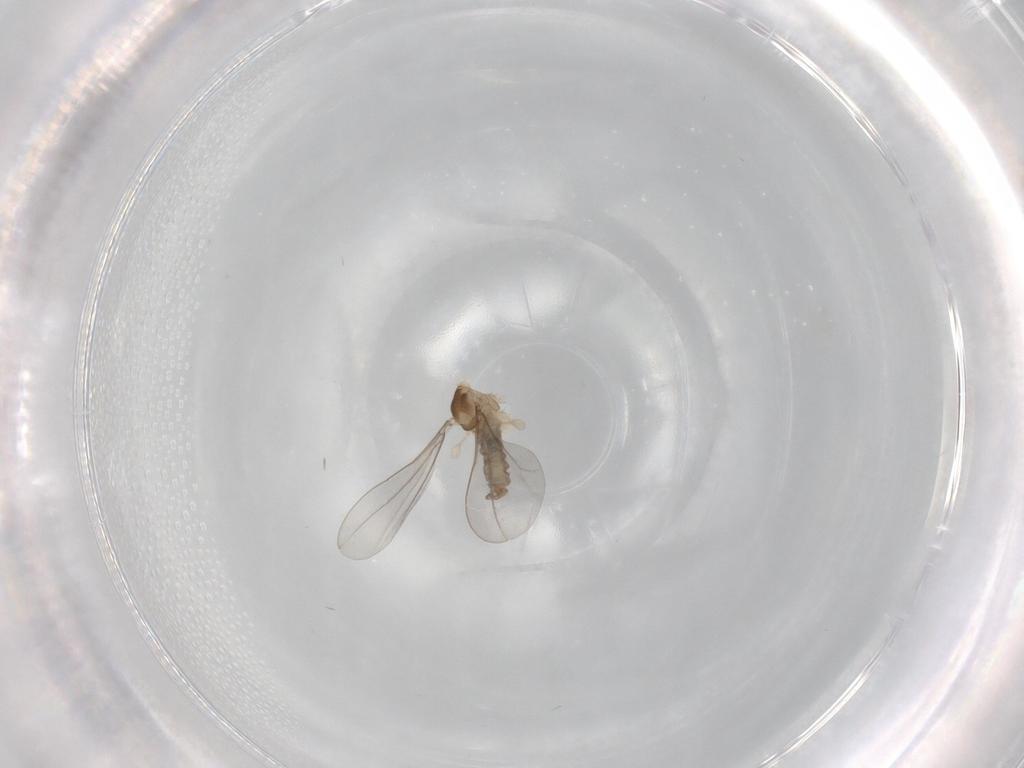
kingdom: Animalia
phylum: Arthropoda
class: Insecta
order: Diptera
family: Cecidomyiidae
